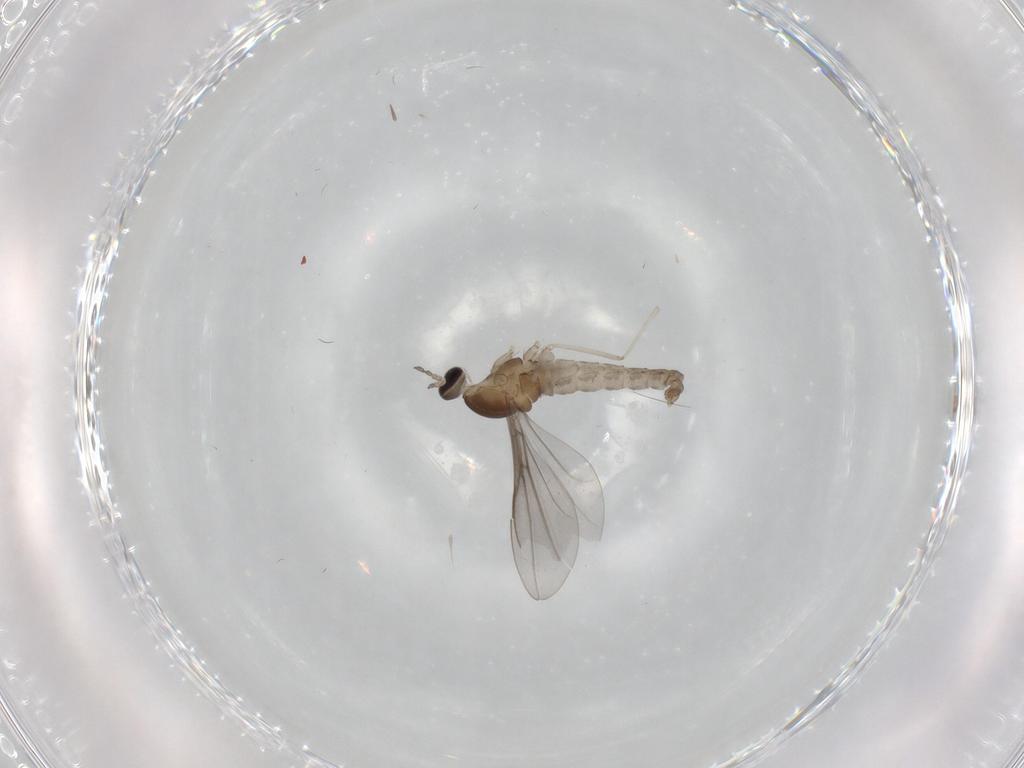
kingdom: Animalia
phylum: Arthropoda
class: Insecta
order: Diptera
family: Cecidomyiidae
